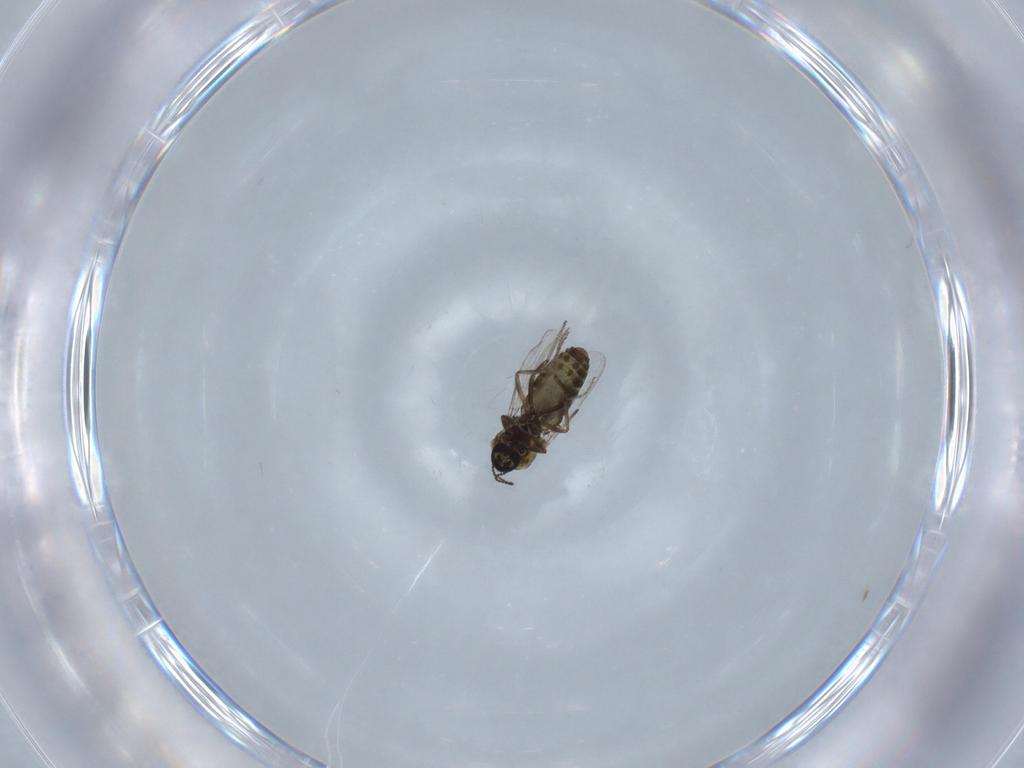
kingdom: Animalia
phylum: Arthropoda
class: Insecta
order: Diptera
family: Ceratopogonidae
